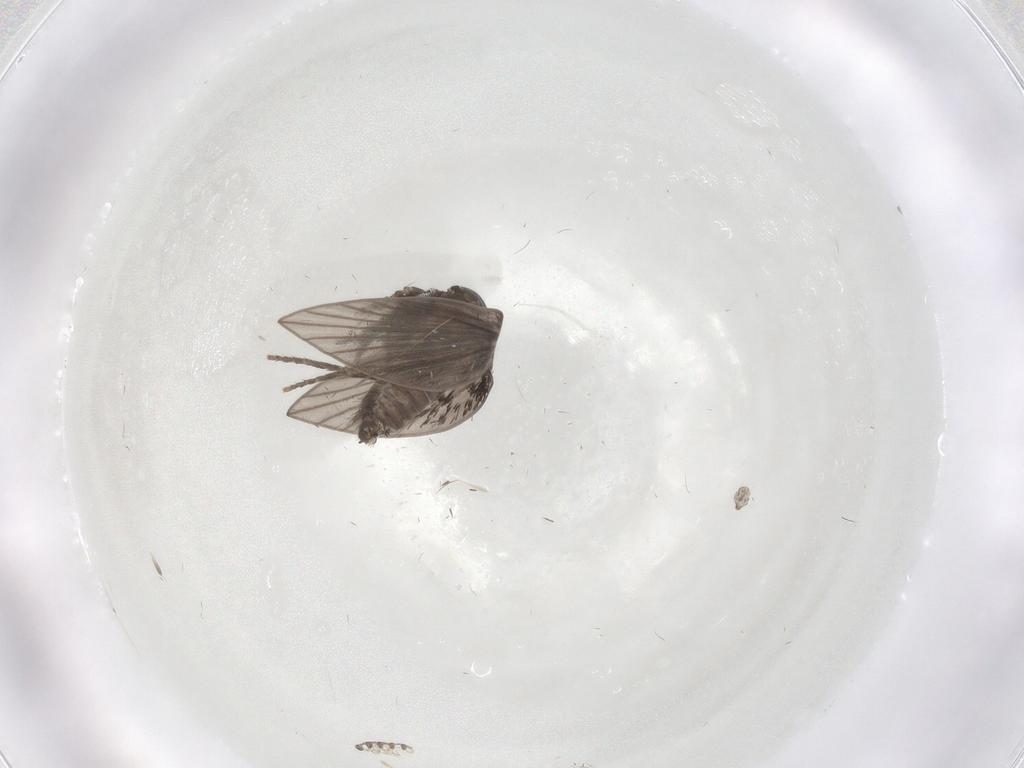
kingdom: Animalia
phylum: Arthropoda
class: Insecta
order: Diptera
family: Psychodidae
